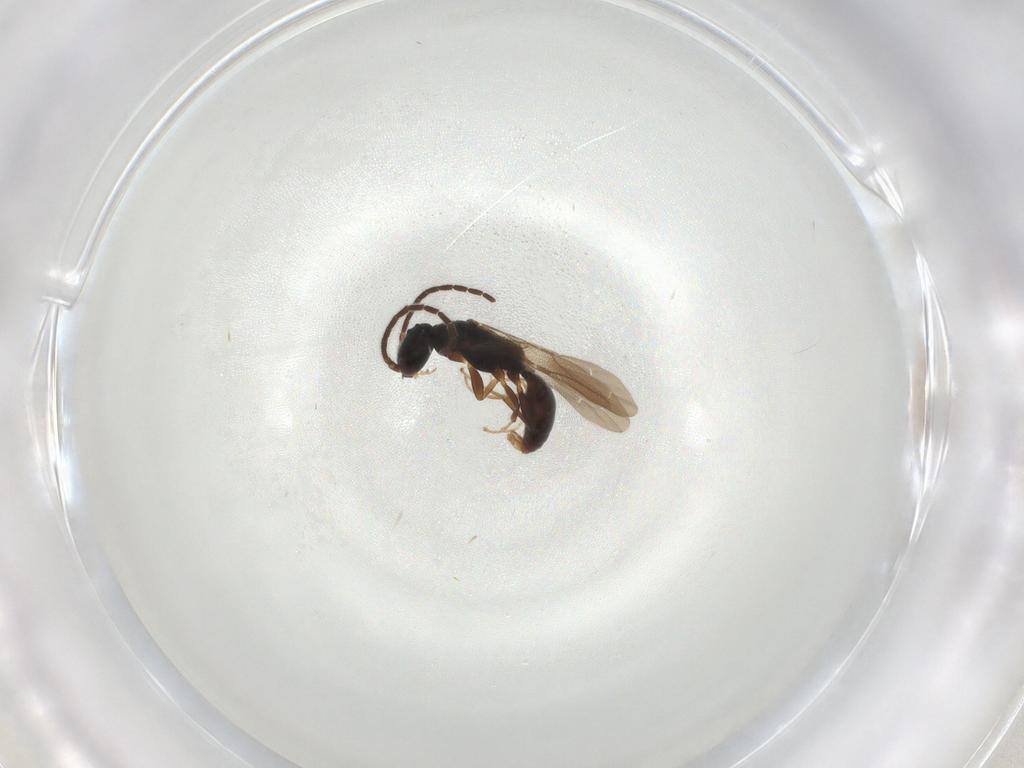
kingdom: Animalia
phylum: Arthropoda
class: Insecta
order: Hymenoptera
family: Bethylidae
